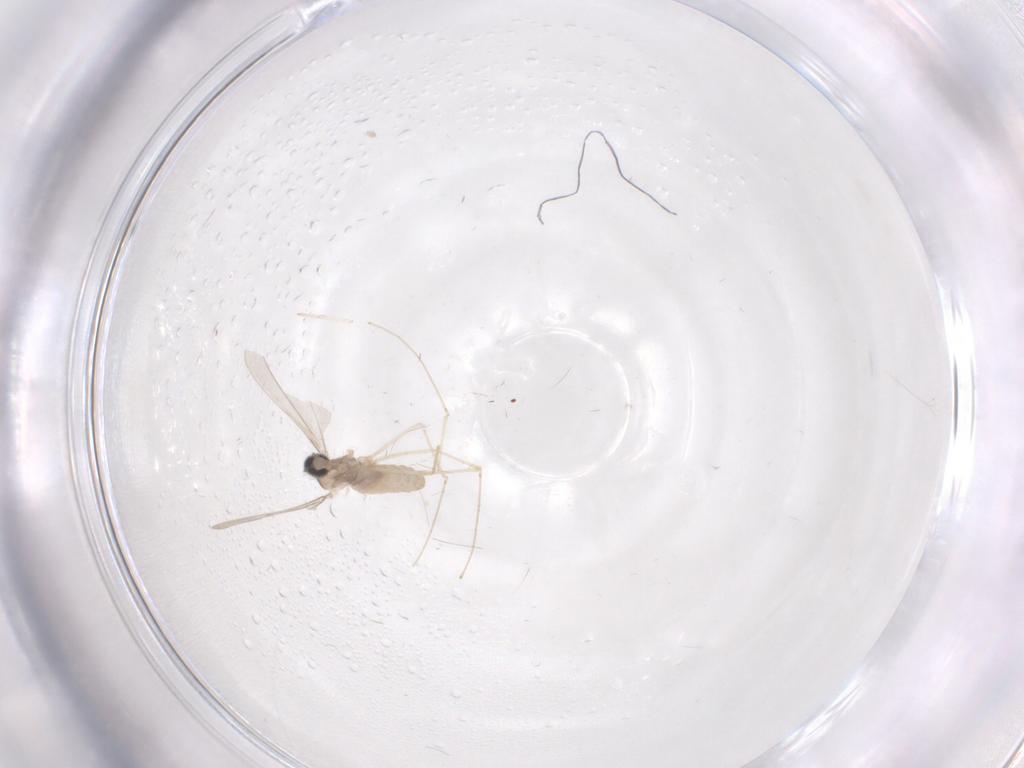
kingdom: Animalia
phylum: Arthropoda
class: Insecta
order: Diptera
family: Cecidomyiidae
